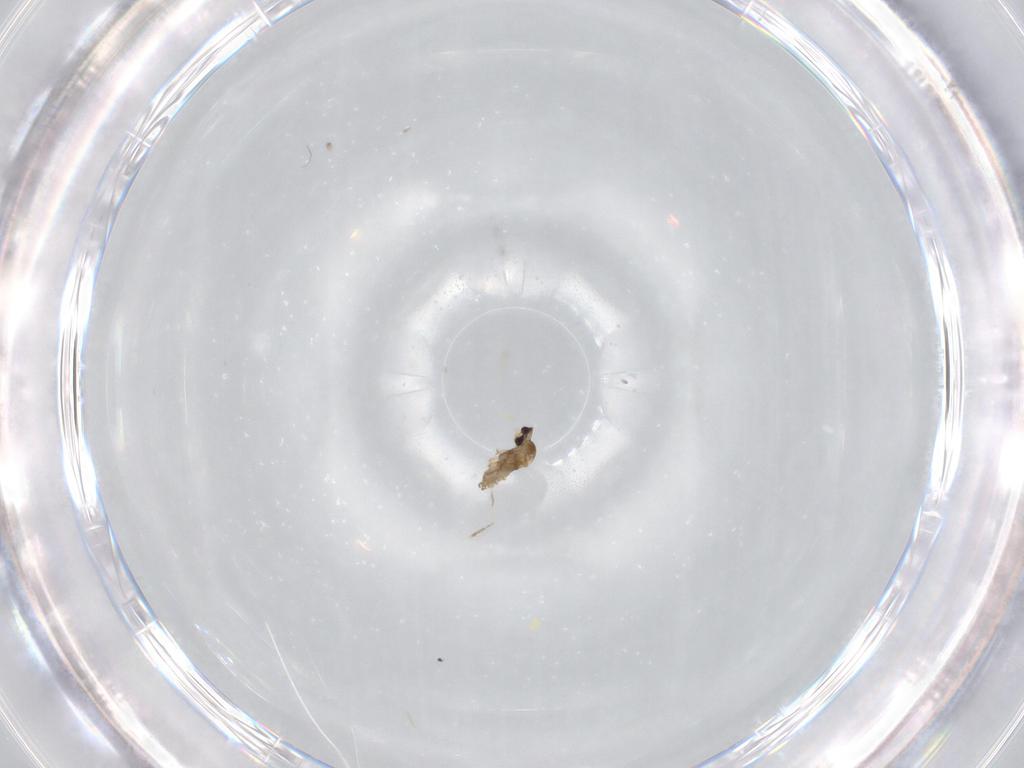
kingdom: Animalia
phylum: Arthropoda
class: Insecta
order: Diptera
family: Cecidomyiidae
